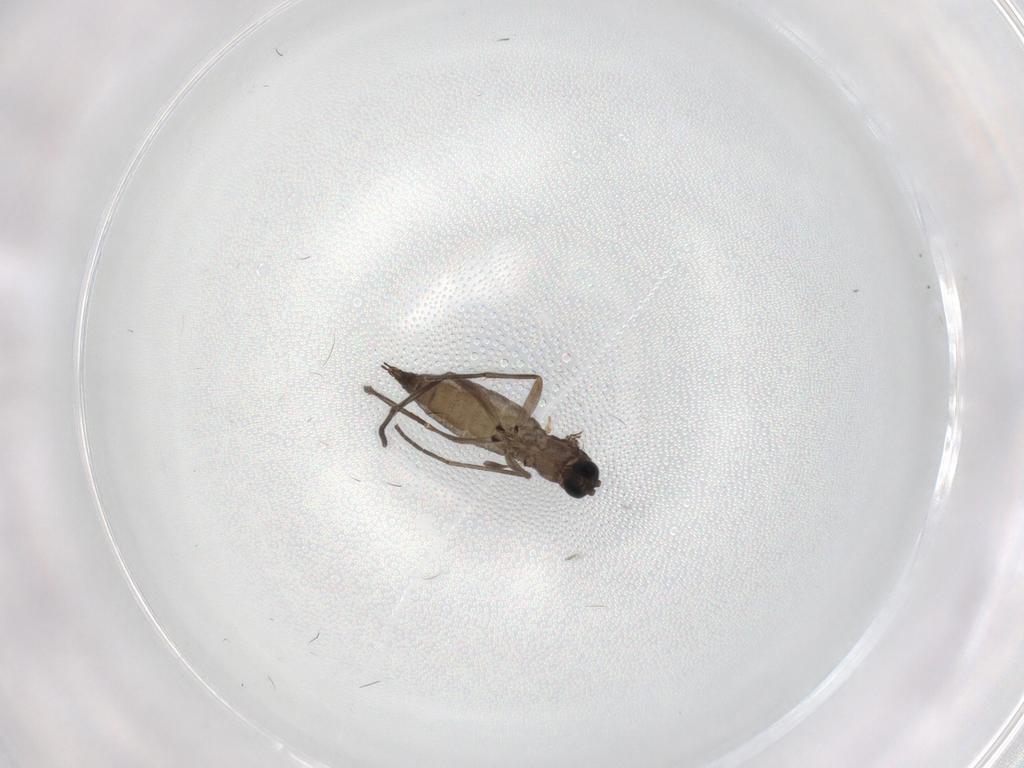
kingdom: Animalia
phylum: Arthropoda
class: Insecta
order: Diptera
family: Sciaridae
